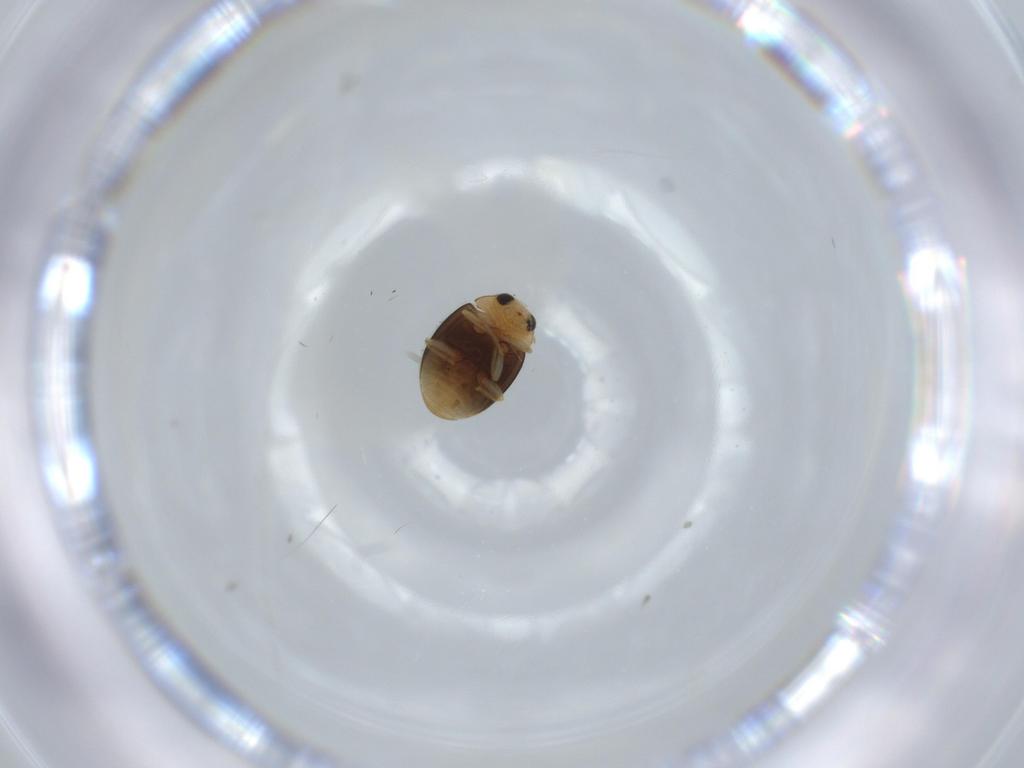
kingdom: Animalia
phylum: Arthropoda
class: Insecta
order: Coleoptera
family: Coccinellidae
